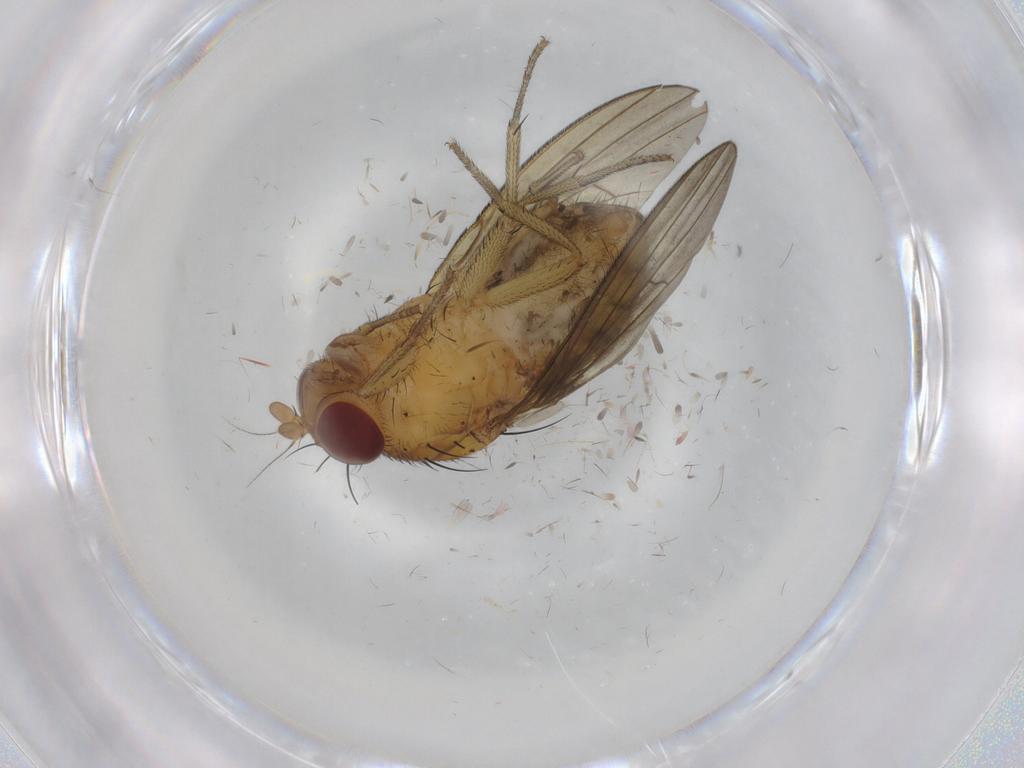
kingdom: Animalia
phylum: Arthropoda
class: Insecta
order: Diptera
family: Limoniidae
